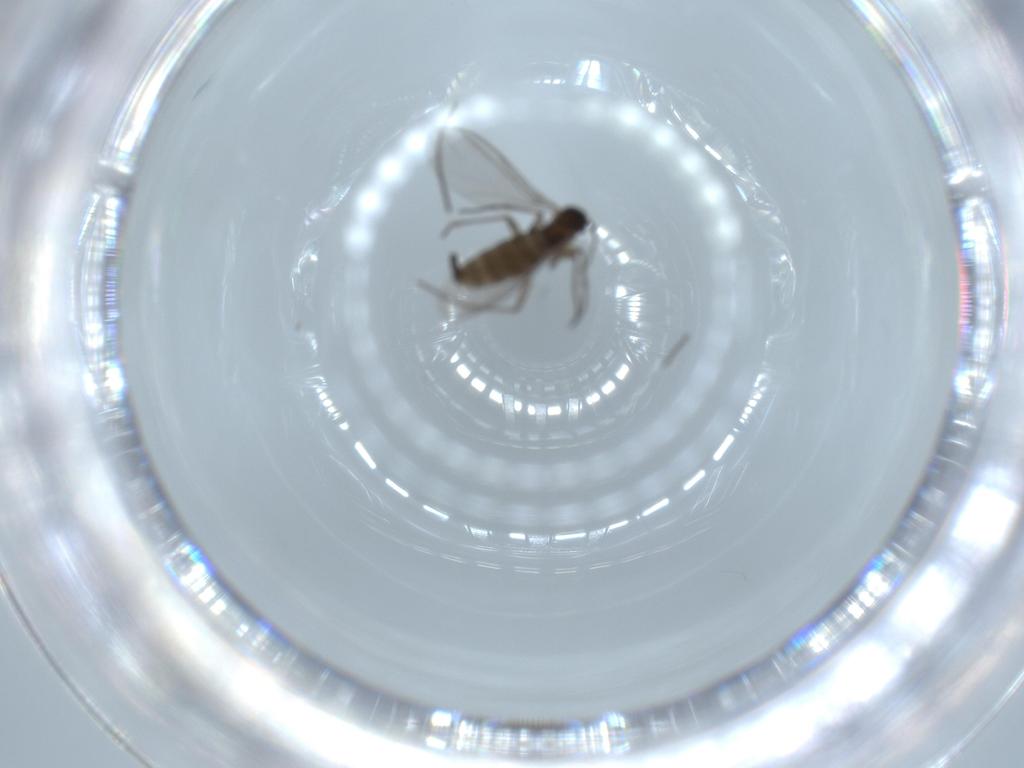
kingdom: Animalia
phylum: Arthropoda
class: Insecta
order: Diptera
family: Sciaridae
